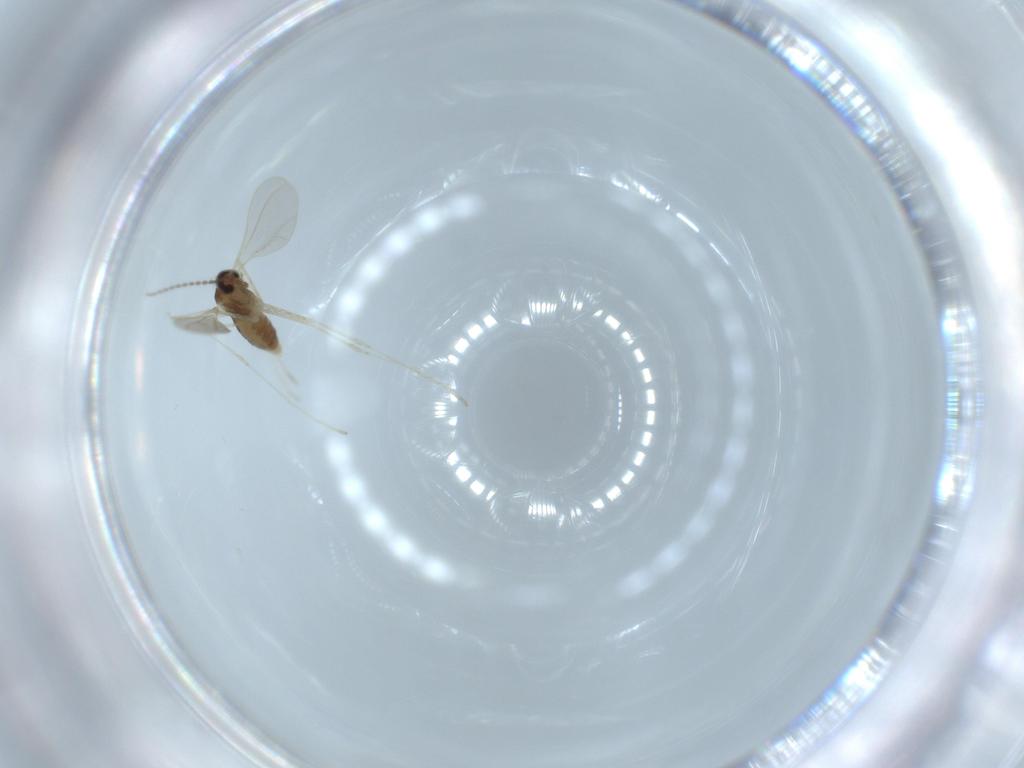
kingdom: Animalia
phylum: Arthropoda
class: Insecta
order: Diptera
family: Cecidomyiidae
